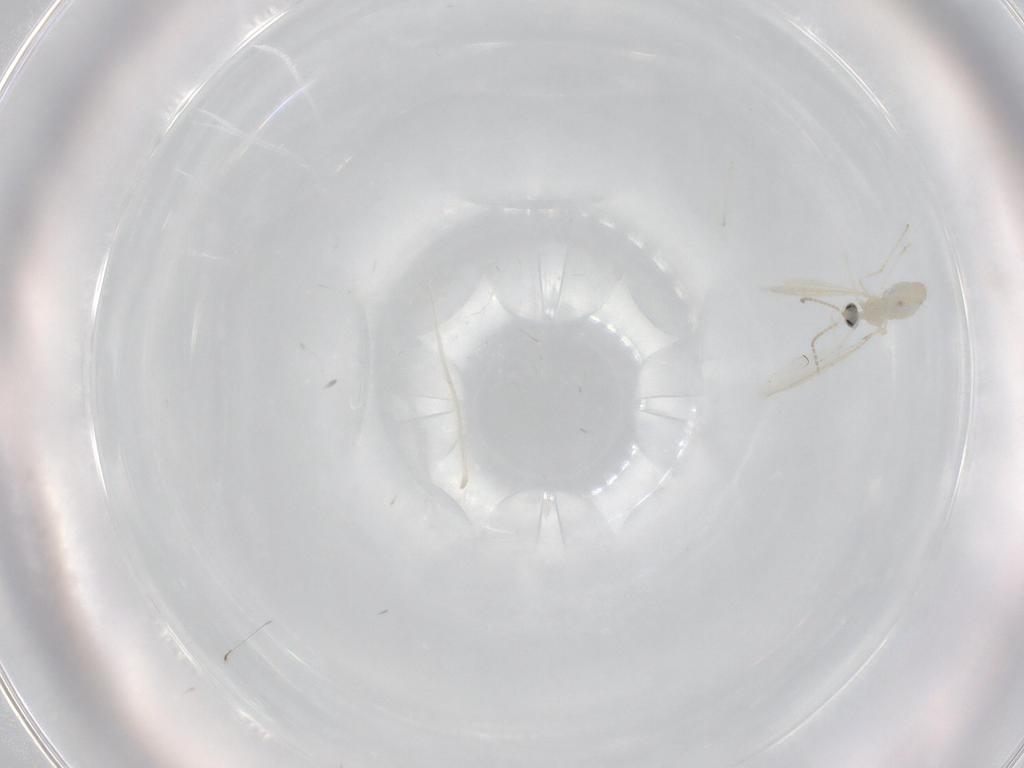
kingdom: Animalia
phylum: Arthropoda
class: Insecta
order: Diptera
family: Cecidomyiidae
